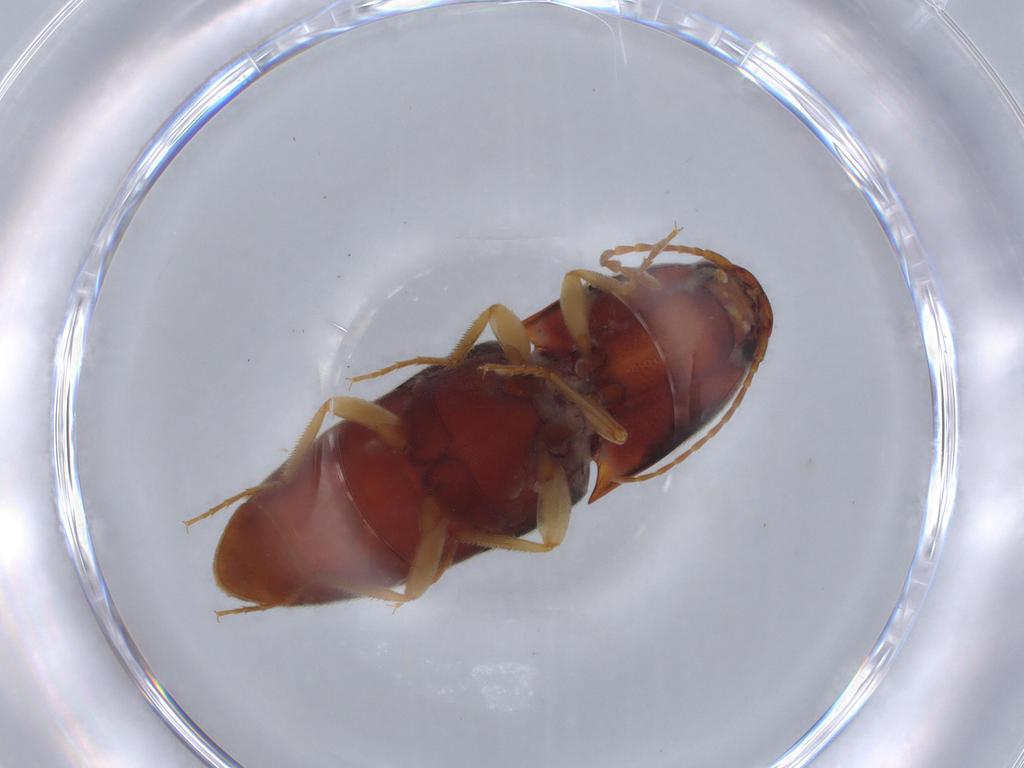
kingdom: Animalia
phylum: Arthropoda
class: Insecta
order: Coleoptera
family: Elateridae
